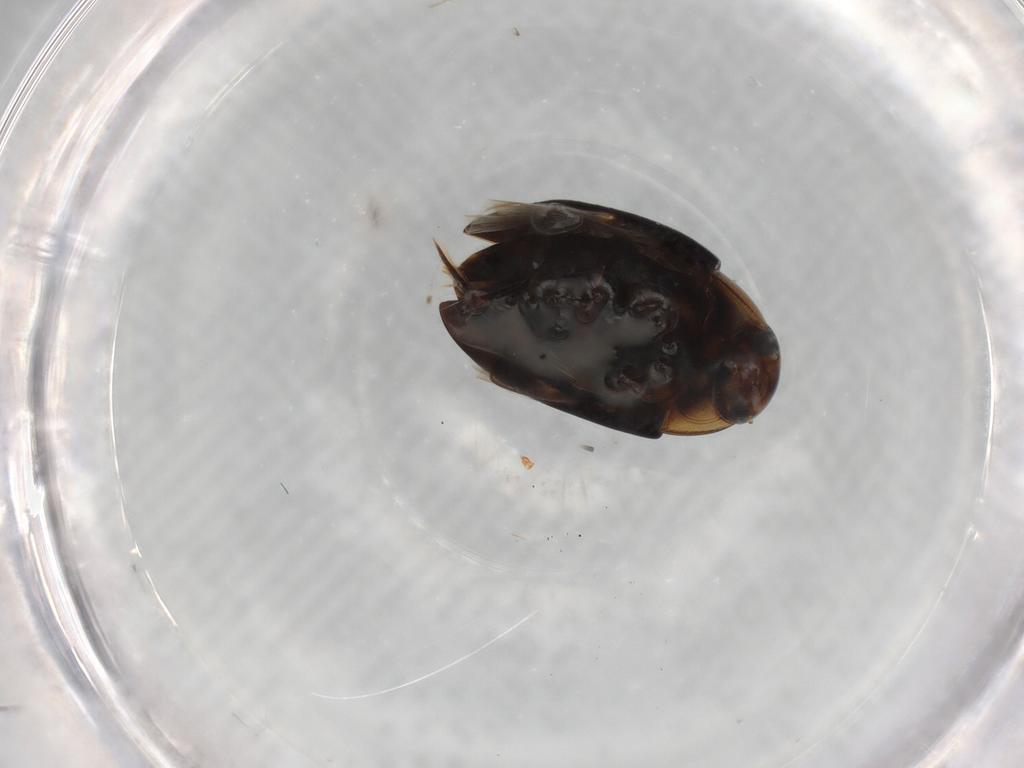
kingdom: Animalia
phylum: Arthropoda
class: Insecta
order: Coleoptera
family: Noteridae
